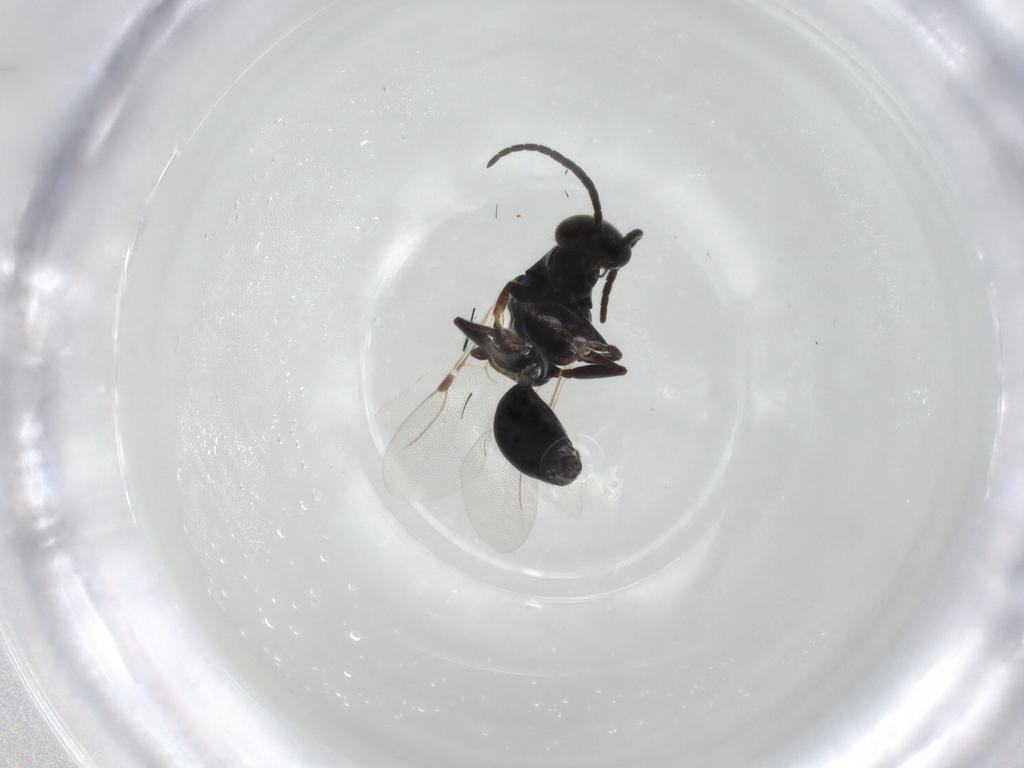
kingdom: Animalia
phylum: Arthropoda
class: Insecta
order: Hymenoptera
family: Bethylidae
